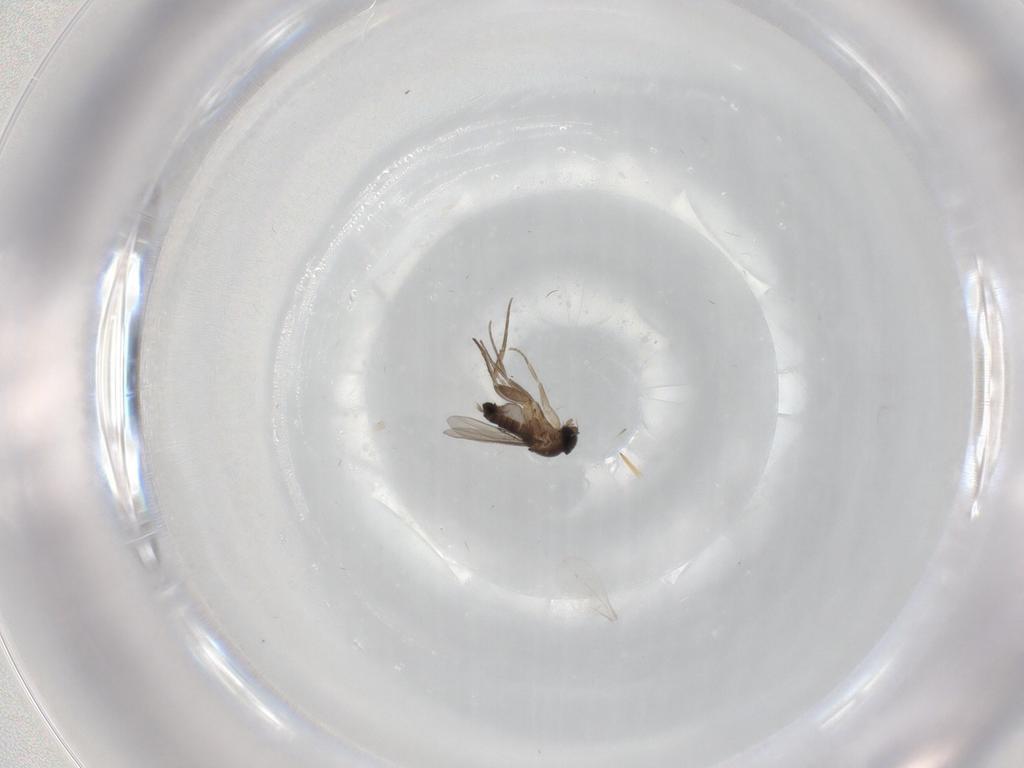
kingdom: Animalia
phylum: Arthropoda
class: Insecta
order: Diptera
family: Phoridae
